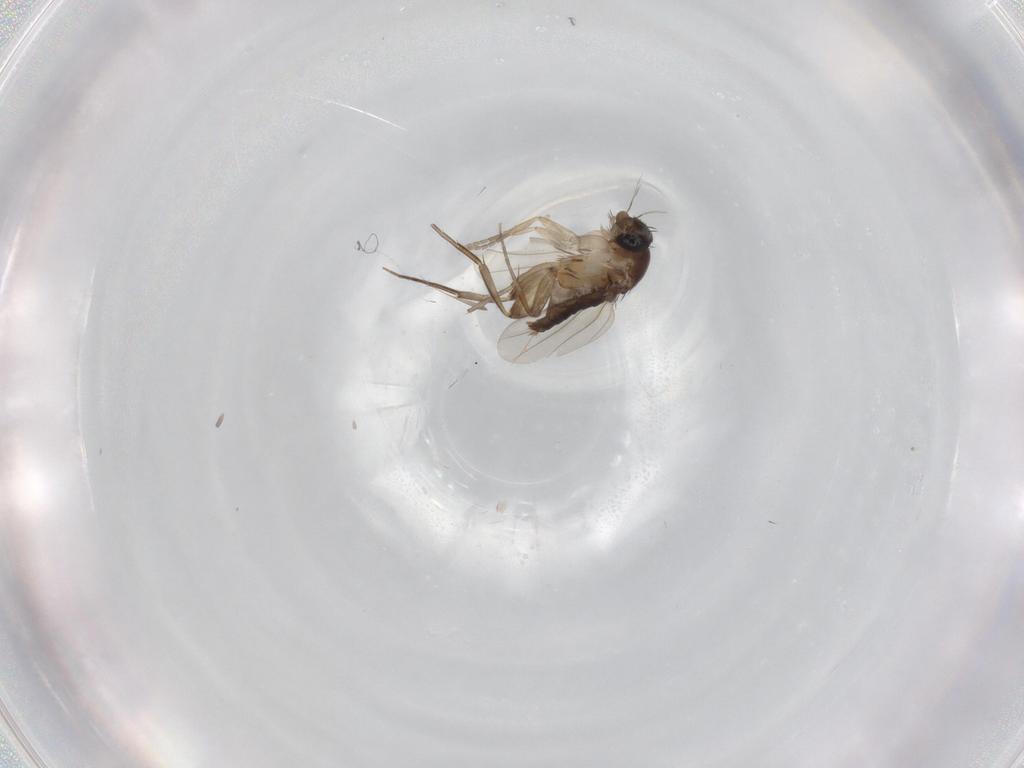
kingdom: Animalia
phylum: Arthropoda
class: Insecta
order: Diptera
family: Phoridae
